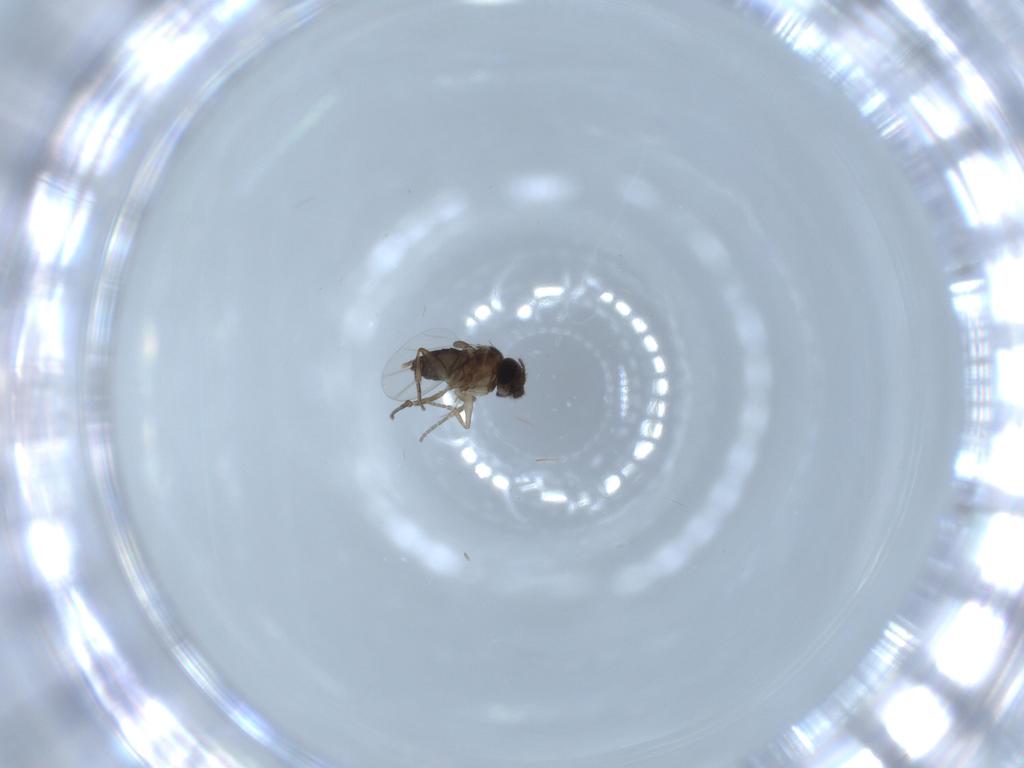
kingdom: Animalia
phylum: Arthropoda
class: Insecta
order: Diptera
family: Phoridae
